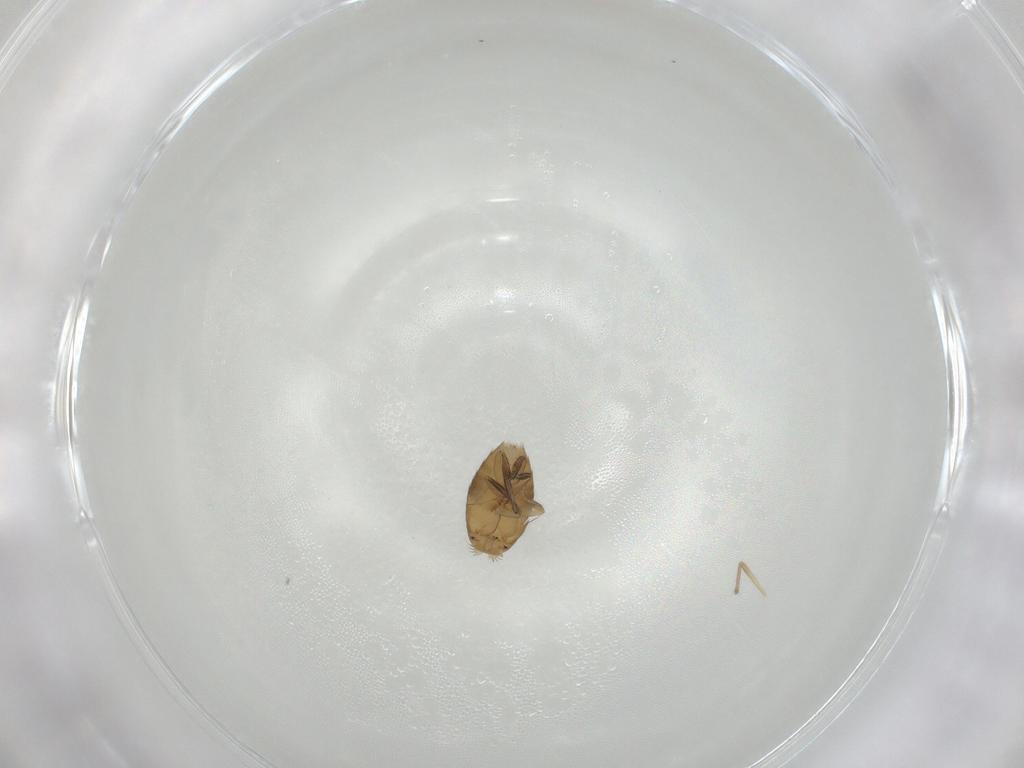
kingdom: Animalia
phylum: Arthropoda
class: Insecta
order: Diptera
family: Phoridae
